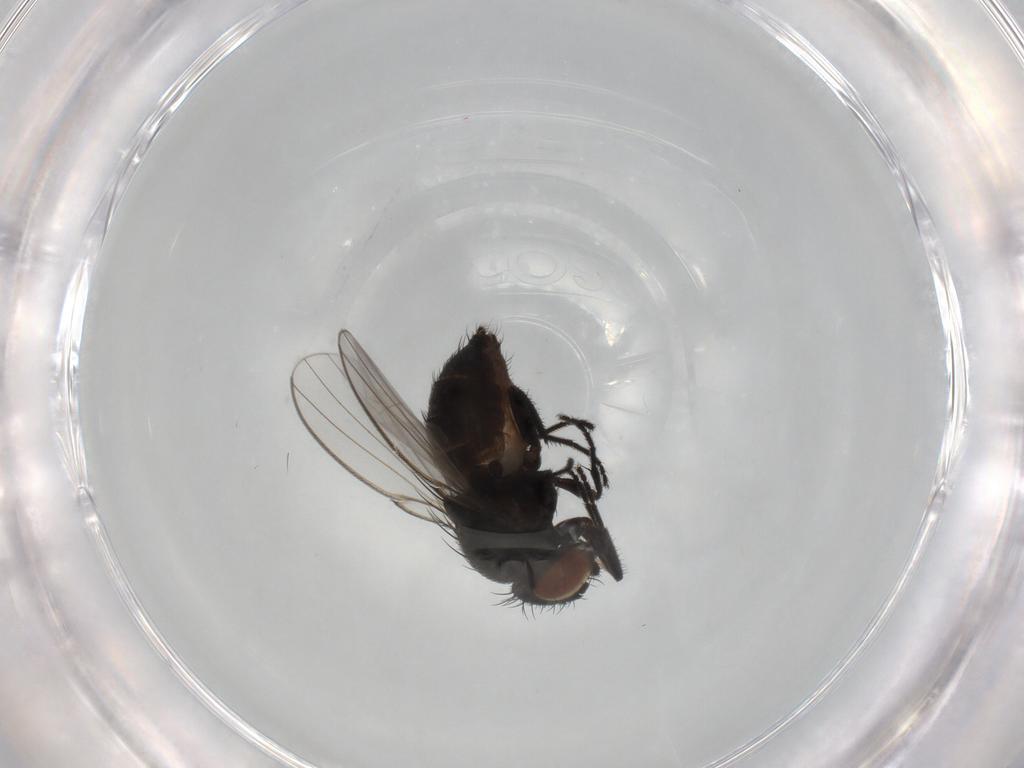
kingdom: Animalia
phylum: Arthropoda
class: Insecta
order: Diptera
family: Milichiidae
